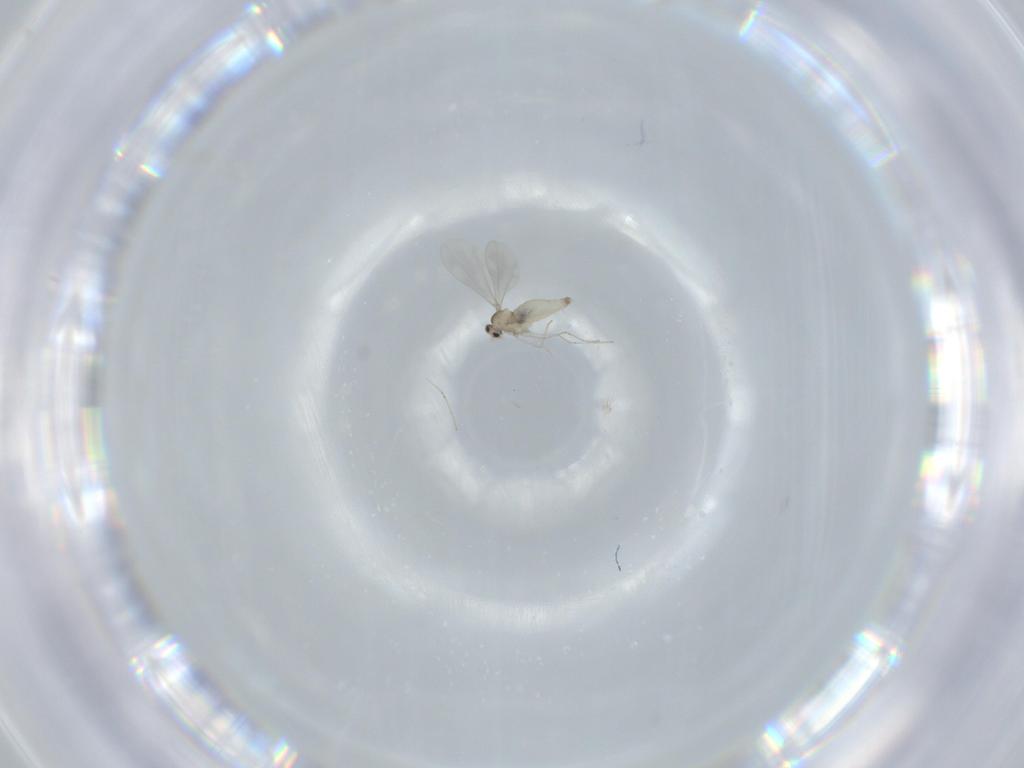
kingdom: Animalia
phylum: Arthropoda
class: Insecta
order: Diptera
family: Cecidomyiidae
